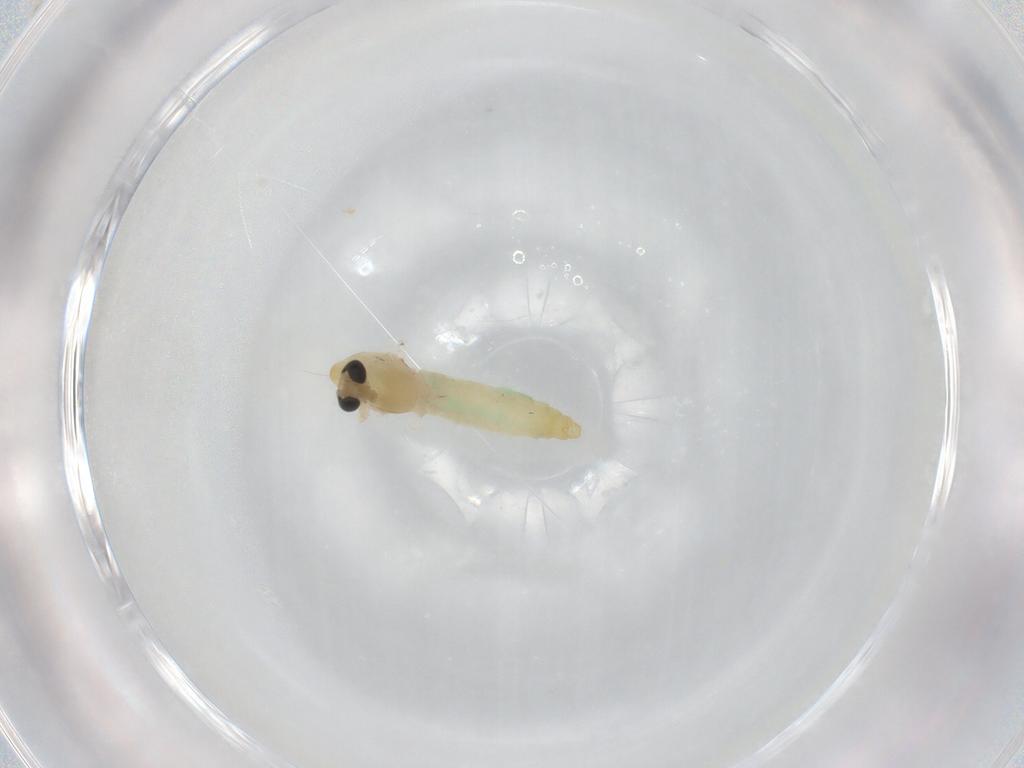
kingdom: Animalia
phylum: Arthropoda
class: Insecta
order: Diptera
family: Chironomidae
